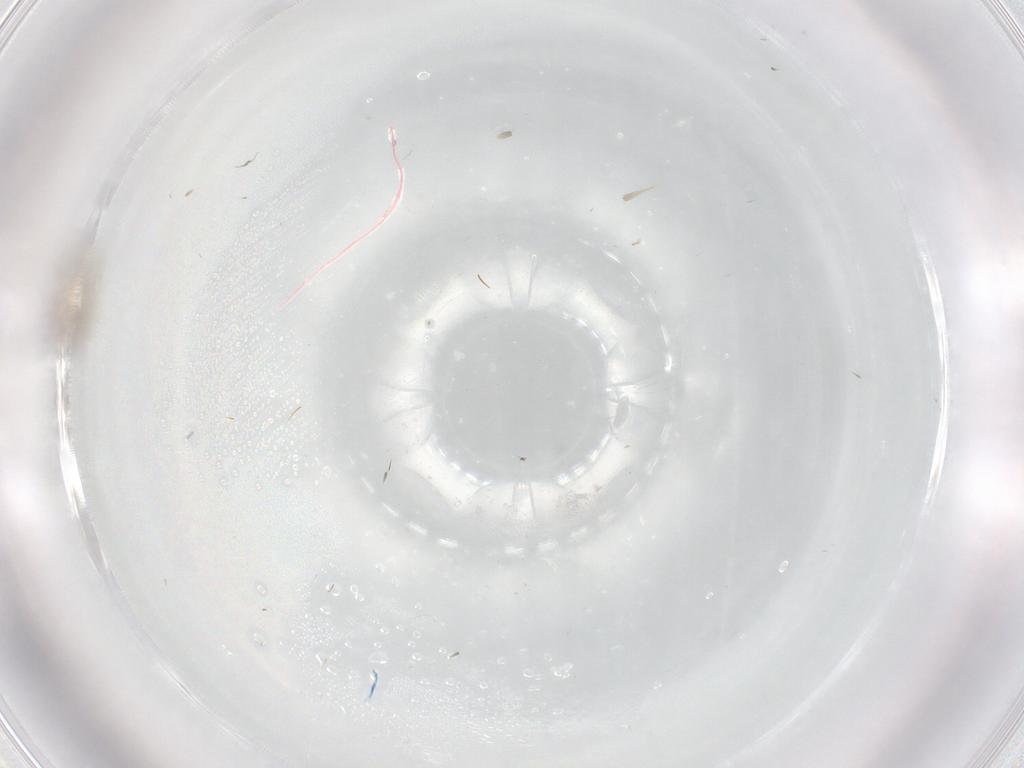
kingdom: Animalia
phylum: Arthropoda
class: Insecta
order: Diptera
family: Cecidomyiidae
